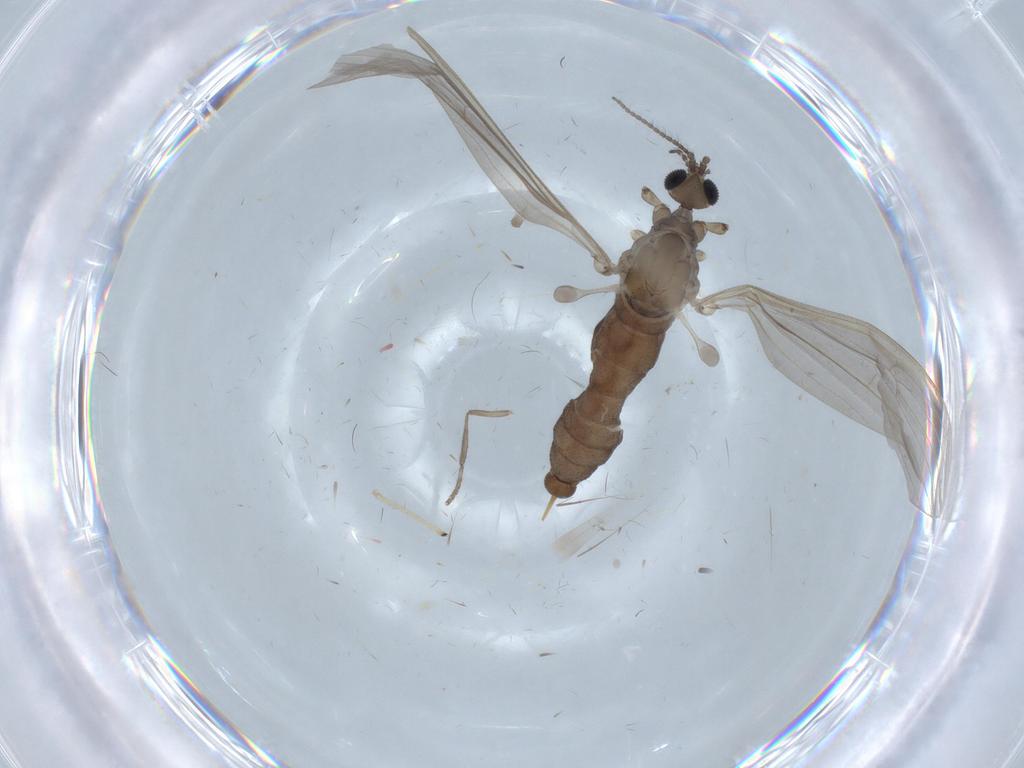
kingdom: Animalia
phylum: Arthropoda
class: Insecta
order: Diptera
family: Limoniidae
